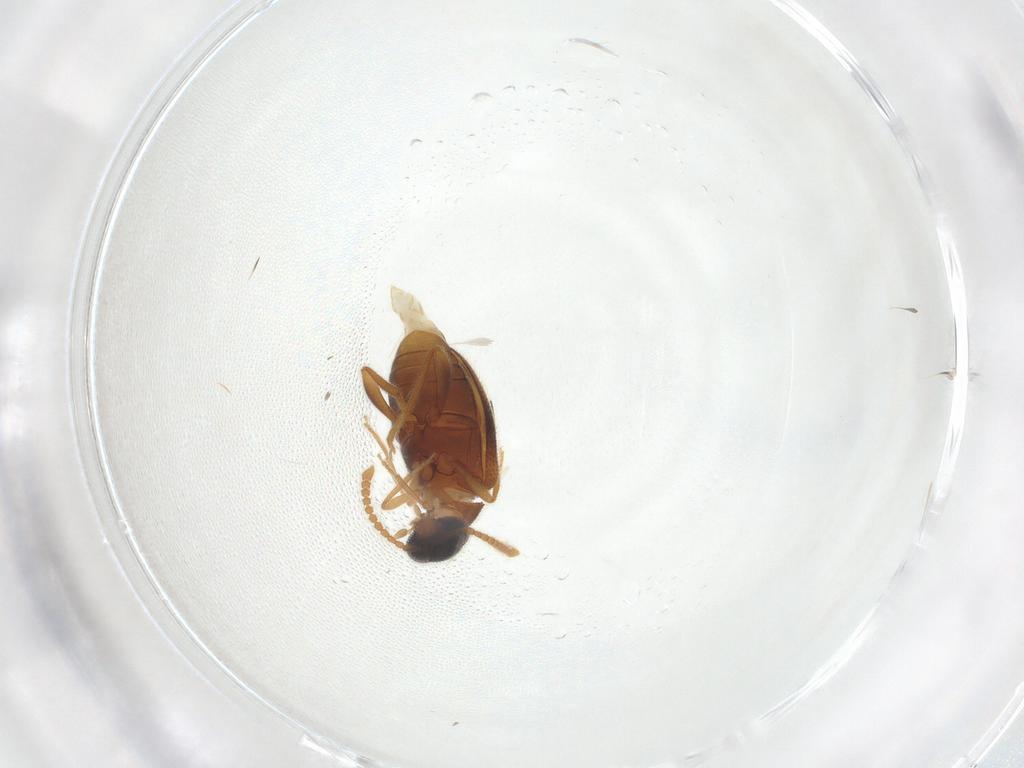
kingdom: Animalia
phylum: Arthropoda
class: Insecta
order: Coleoptera
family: Aderidae
